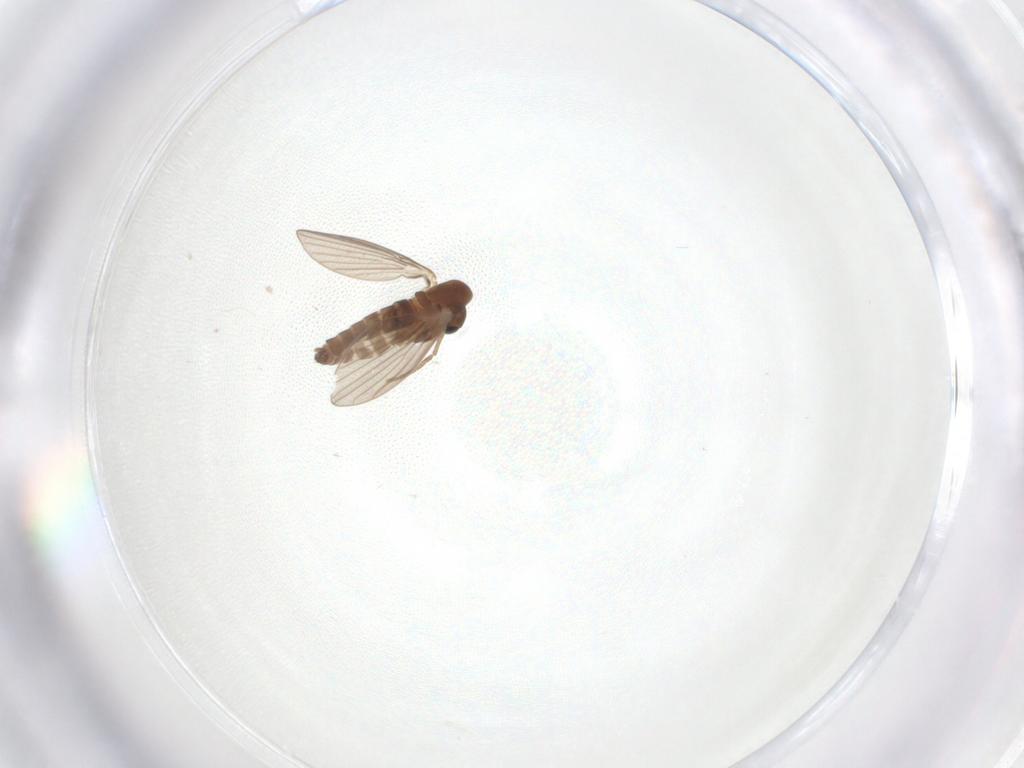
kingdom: Animalia
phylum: Arthropoda
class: Insecta
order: Diptera
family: Psychodidae
